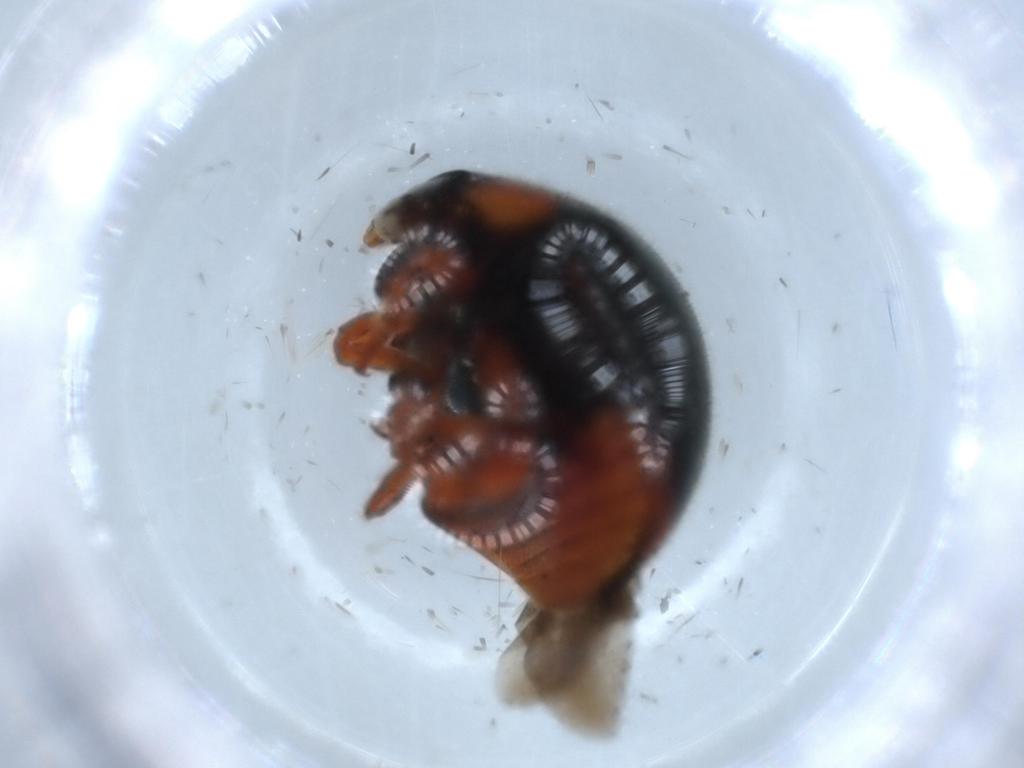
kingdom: Animalia
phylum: Arthropoda
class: Insecta
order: Coleoptera
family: Coccinellidae
